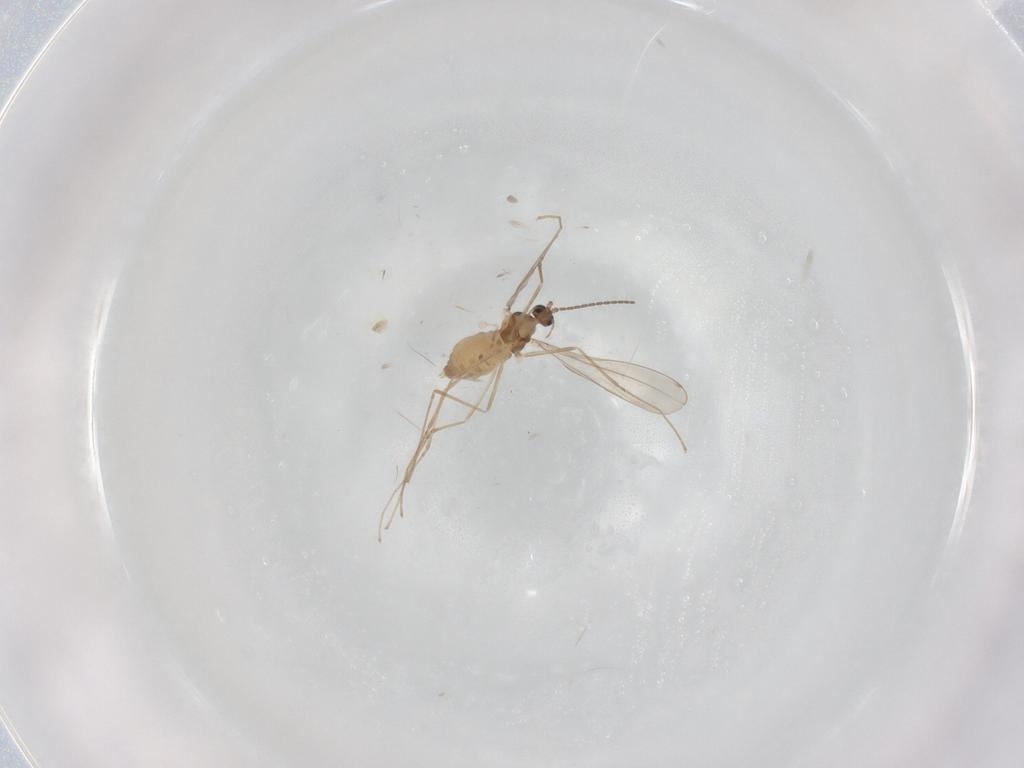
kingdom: Animalia
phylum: Arthropoda
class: Insecta
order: Diptera
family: Cecidomyiidae
